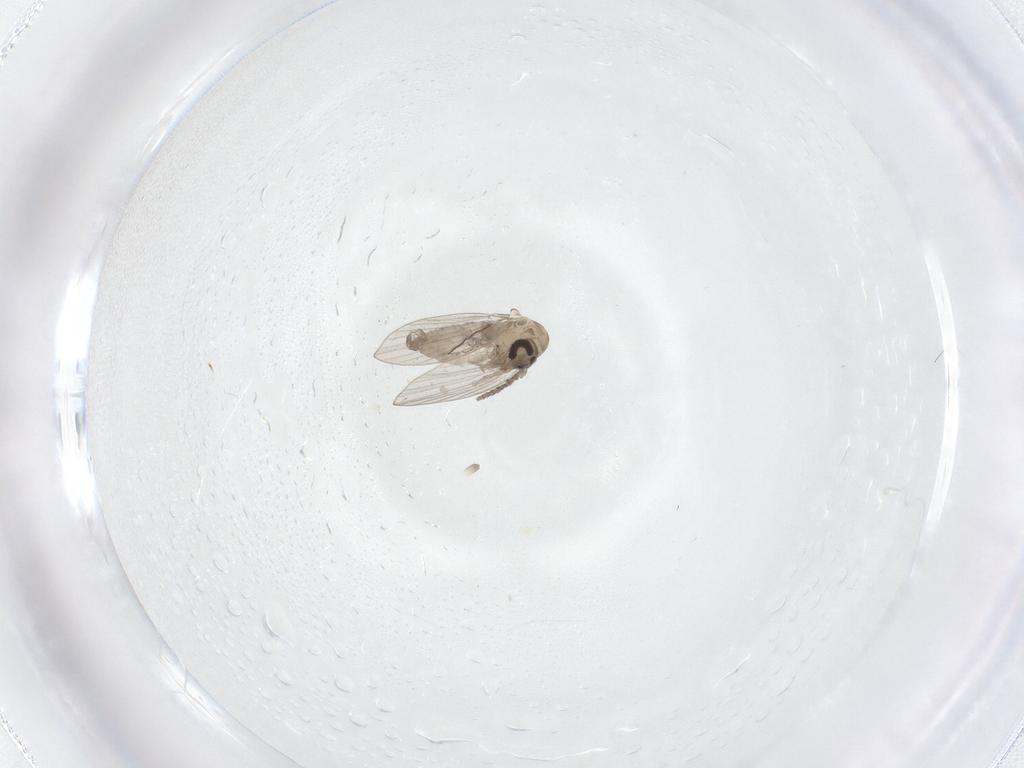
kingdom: Animalia
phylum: Arthropoda
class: Insecta
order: Diptera
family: Psychodidae
